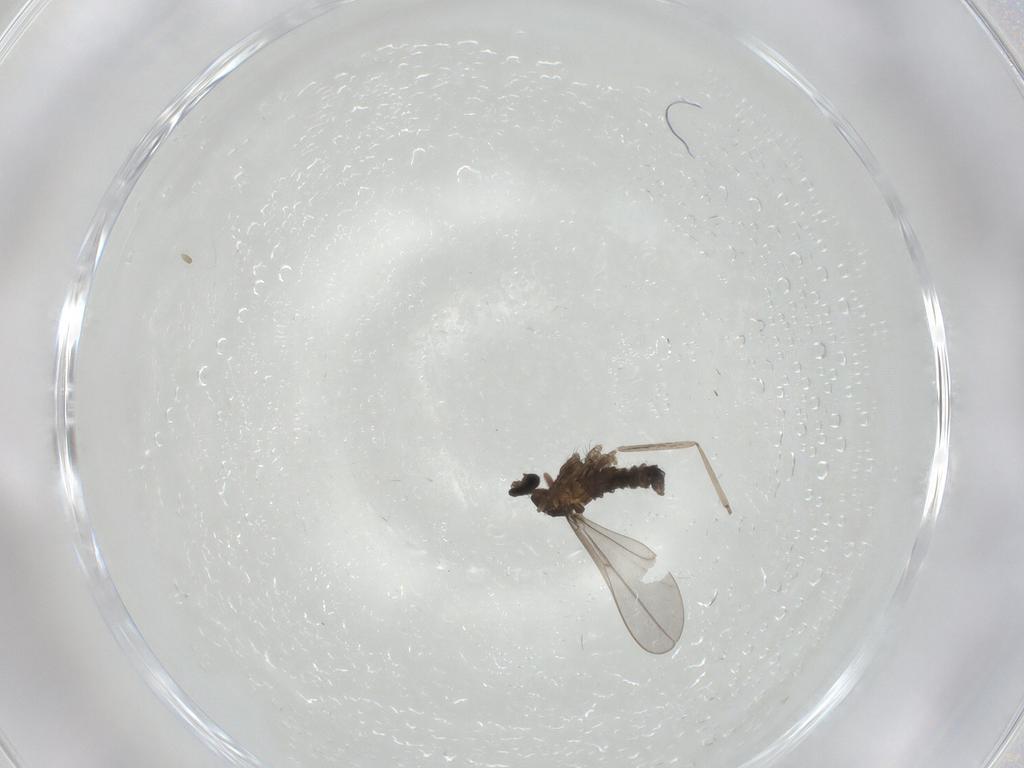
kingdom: Animalia
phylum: Arthropoda
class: Insecta
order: Diptera
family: Cecidomyiidae
